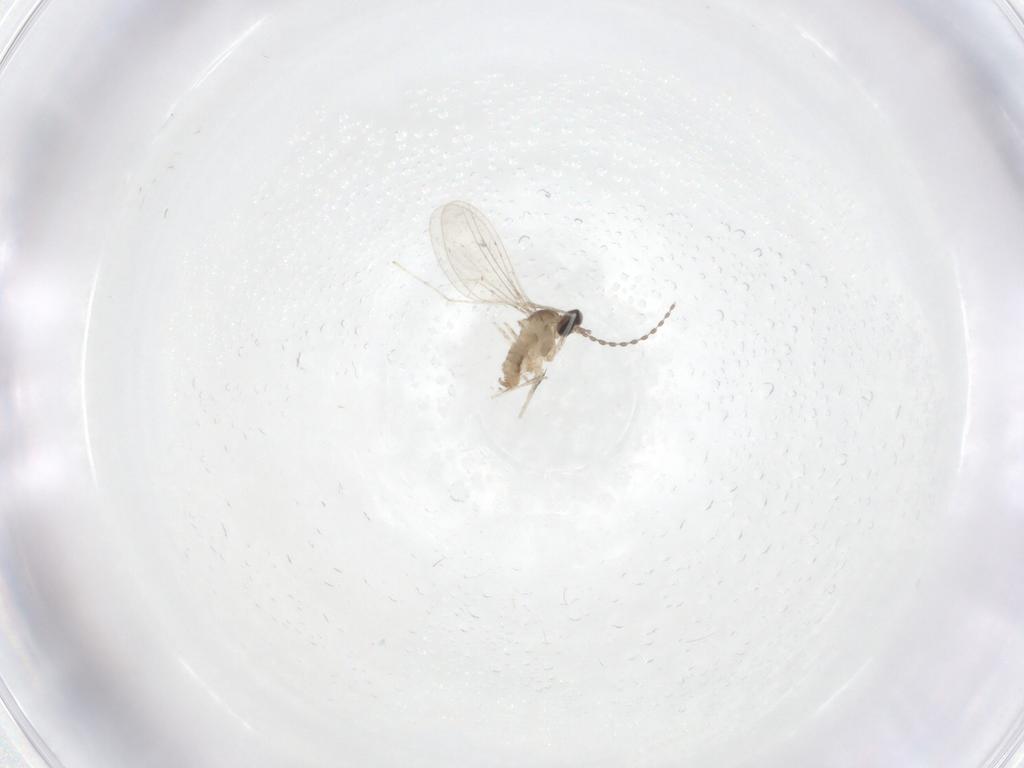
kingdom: Animalia
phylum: Arthropoda
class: Insecta
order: Diptera
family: Cecidomyiidae
